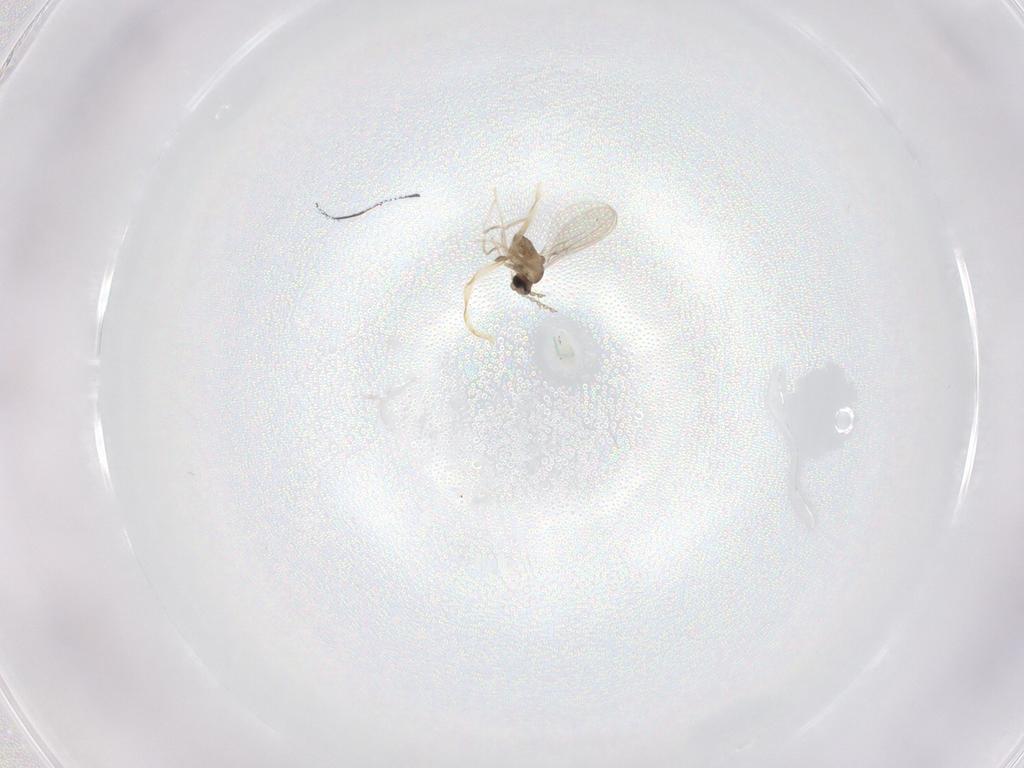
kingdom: Animalia
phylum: Arthropoda
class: Insecta
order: Diptera
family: Cecidomyiidae
